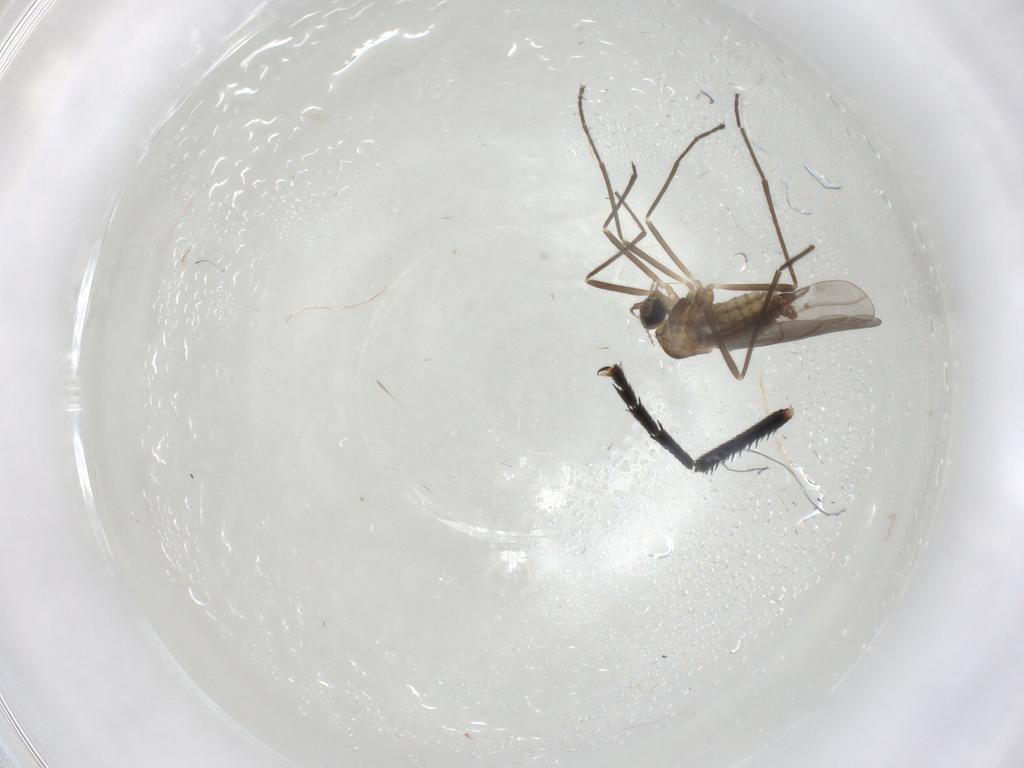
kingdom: Animalia
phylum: Arthropoda
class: Insecta
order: Diptera
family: Cecidomyiidae
